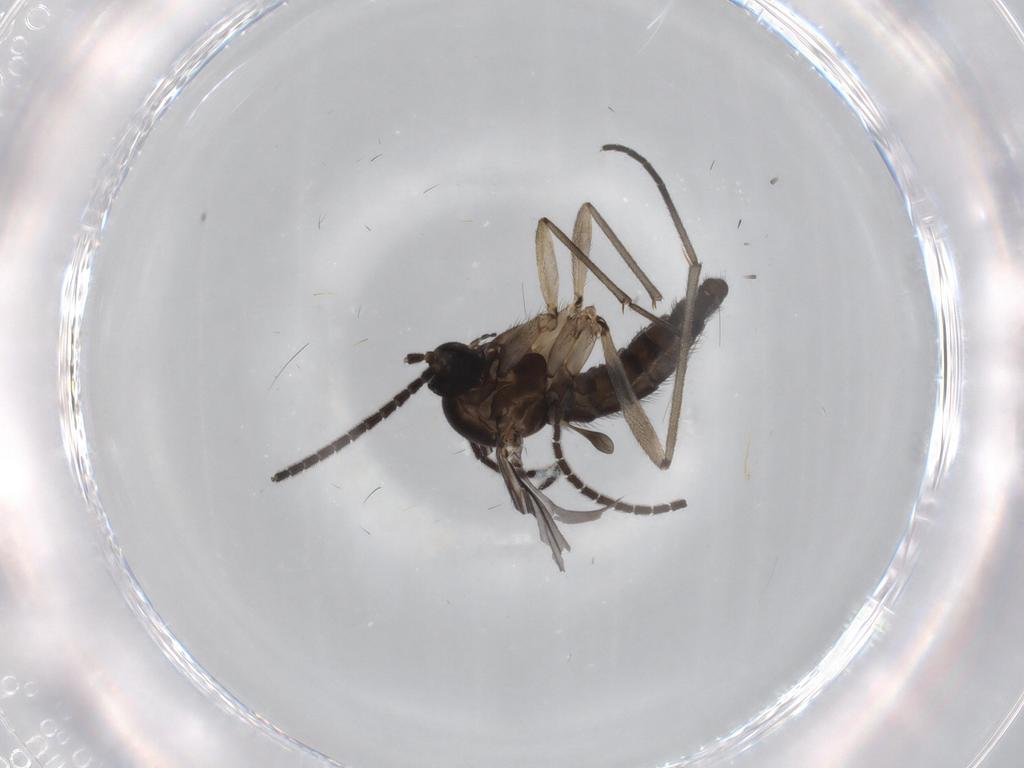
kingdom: Animalia
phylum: Arthropoda
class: Insecta
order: Diptera
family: Sciaridae
